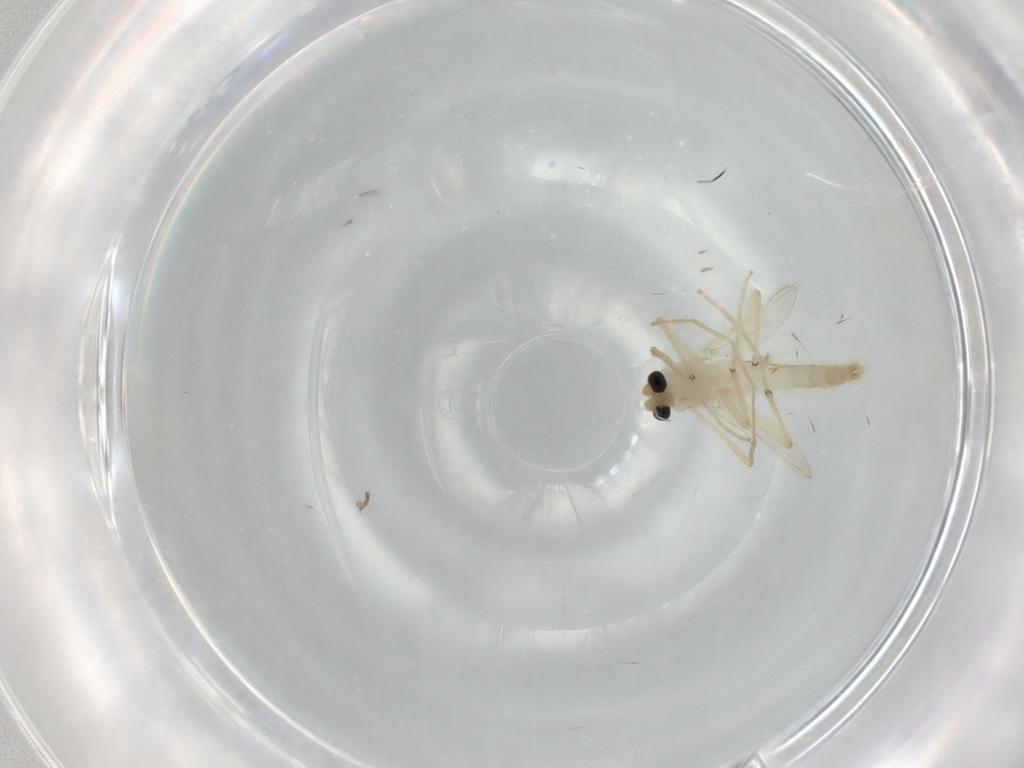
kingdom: Animalia
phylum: Arthropoda
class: Insecta
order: Diptera
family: Chironomidae
